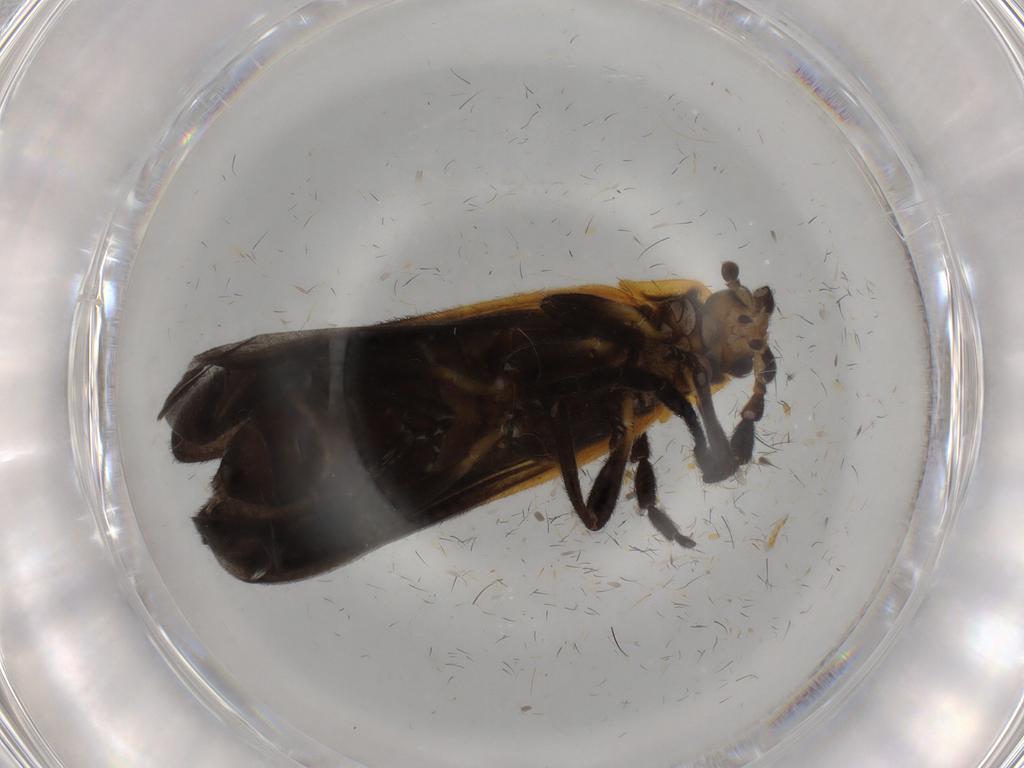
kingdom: Animalia
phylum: Arthropoda
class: Insecta
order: Coleoptera
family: Lycidae
